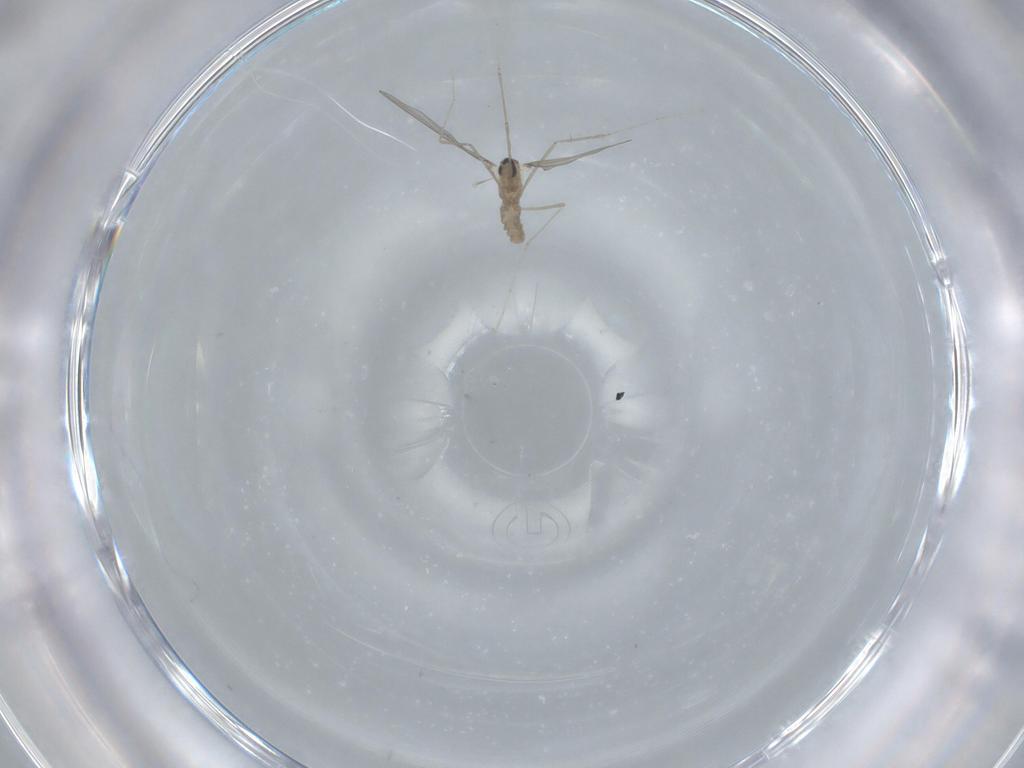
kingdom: Animalia
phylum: Arthropoda
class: Insecta
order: Diptera
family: Cecidomyiidae
